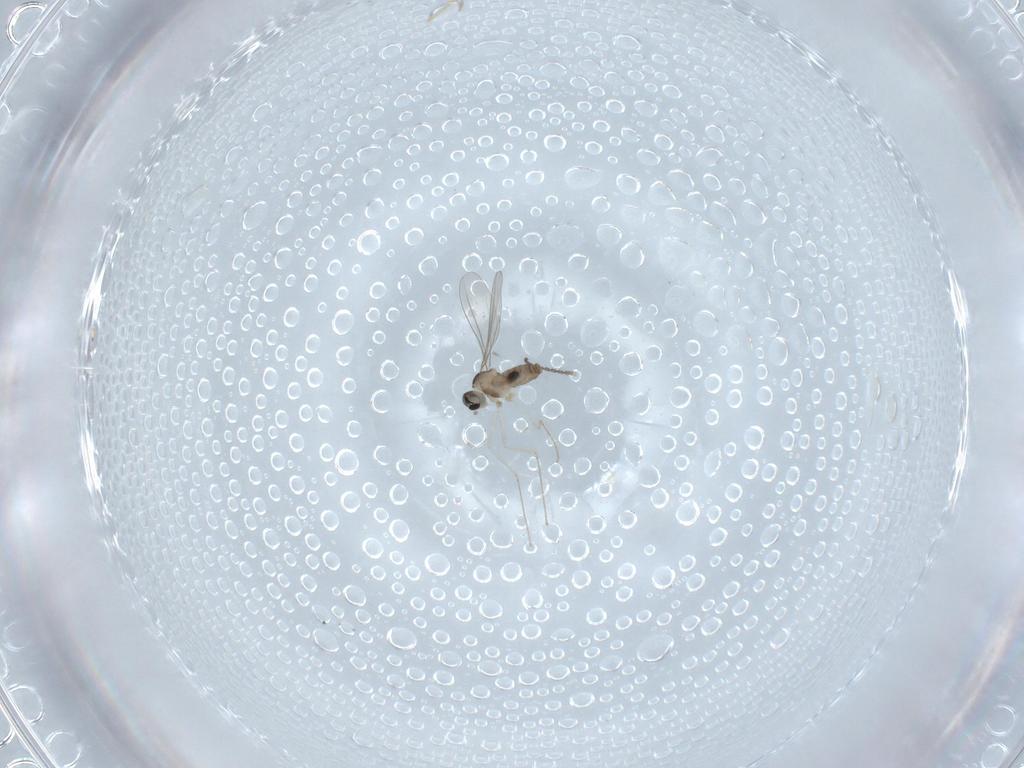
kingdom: Animalia
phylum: Arthropoda
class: Insecta
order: Diptera
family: Cecidomyiidae
